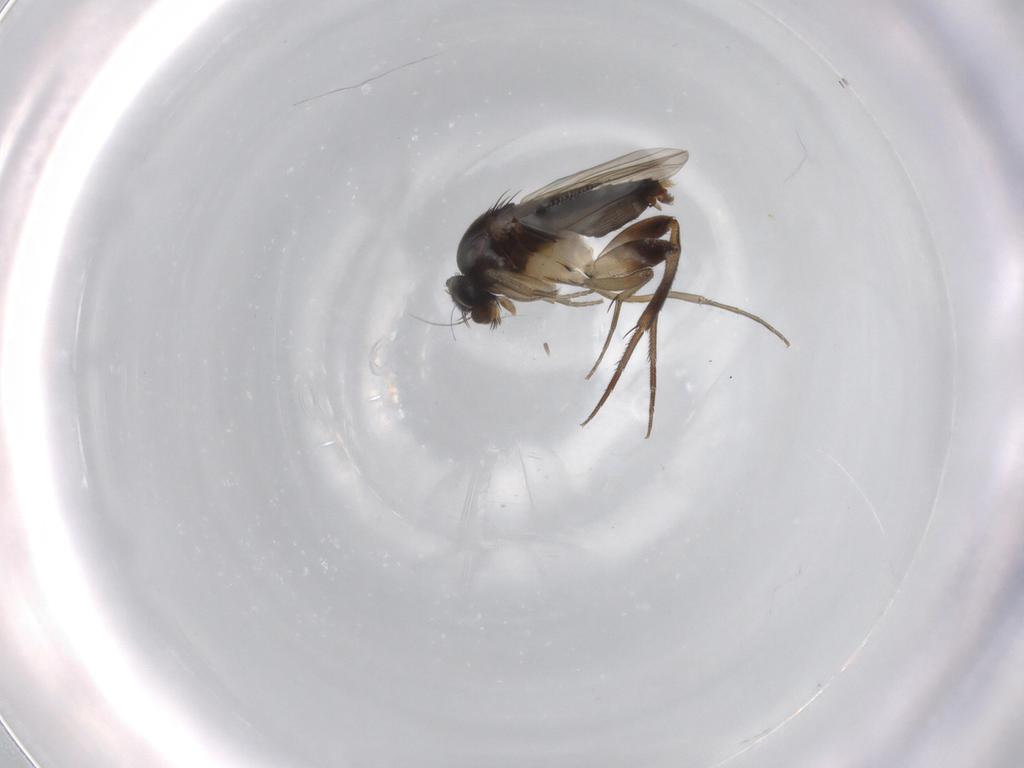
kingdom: Animalia
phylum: Arthropoda
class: Insecta
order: Diptera
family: Phoridae
